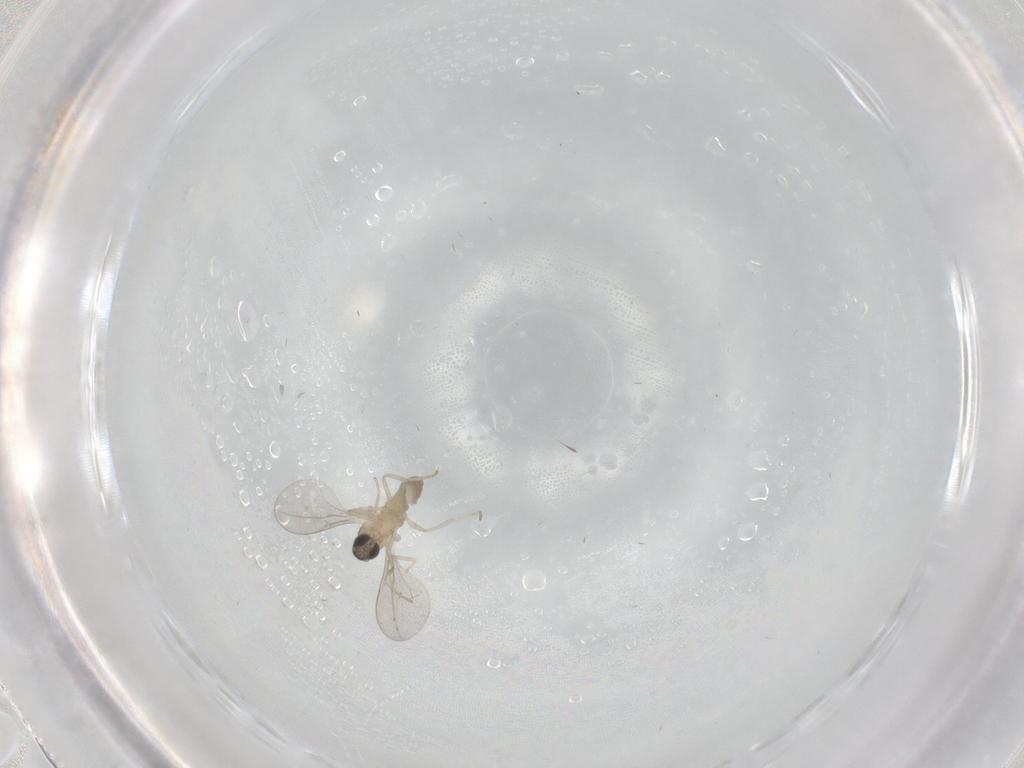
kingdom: Animalia
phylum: Arthropoda
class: Insecta
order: Diptera
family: Cecidomyiidae
